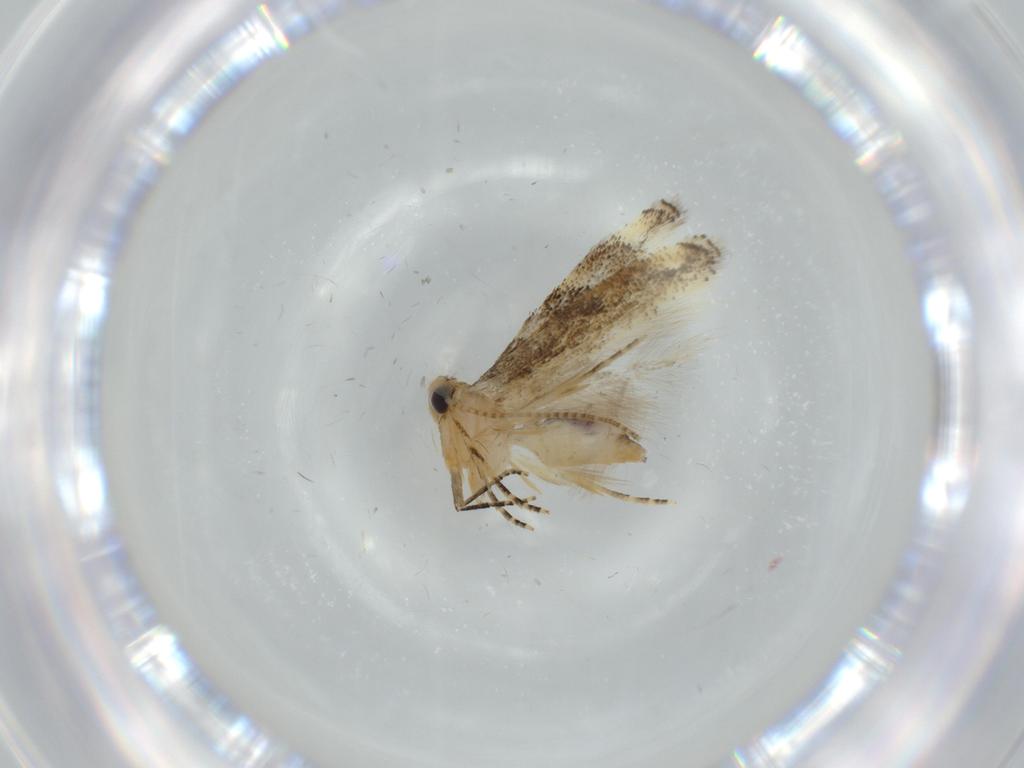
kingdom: Animalia
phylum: Arthropoda
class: Insecta
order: Lepidoptera
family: Bucculatricidae
